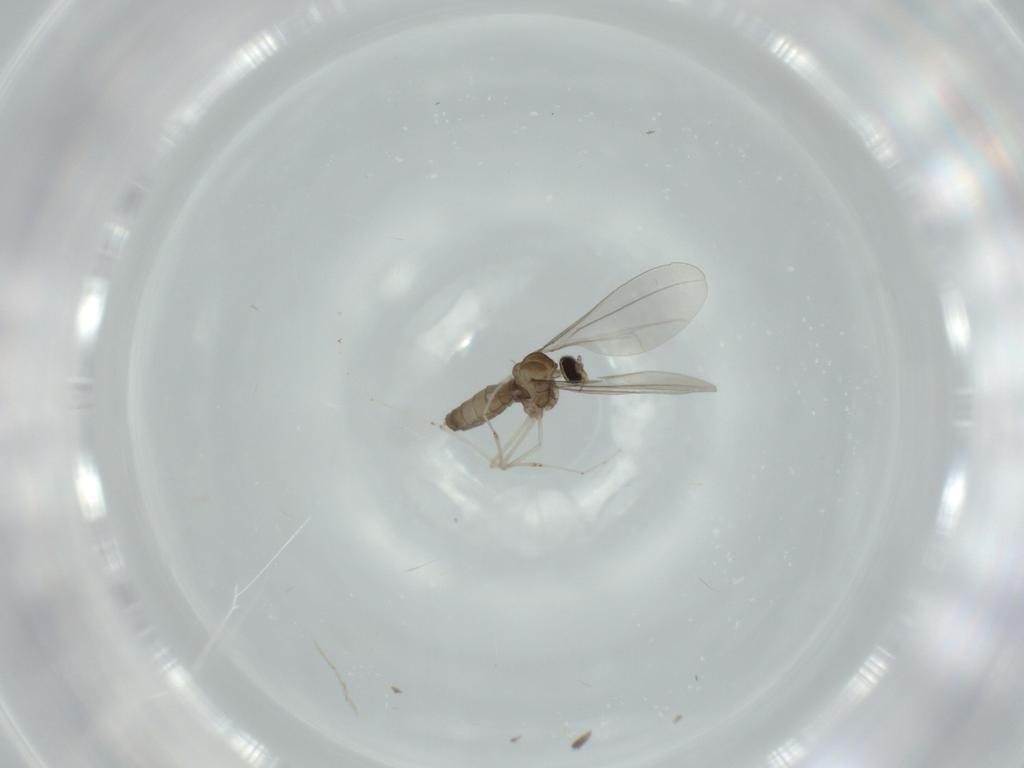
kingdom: Animalia
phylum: Arthropoda
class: Insecta
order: Diptera
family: Cecidomyiidae
